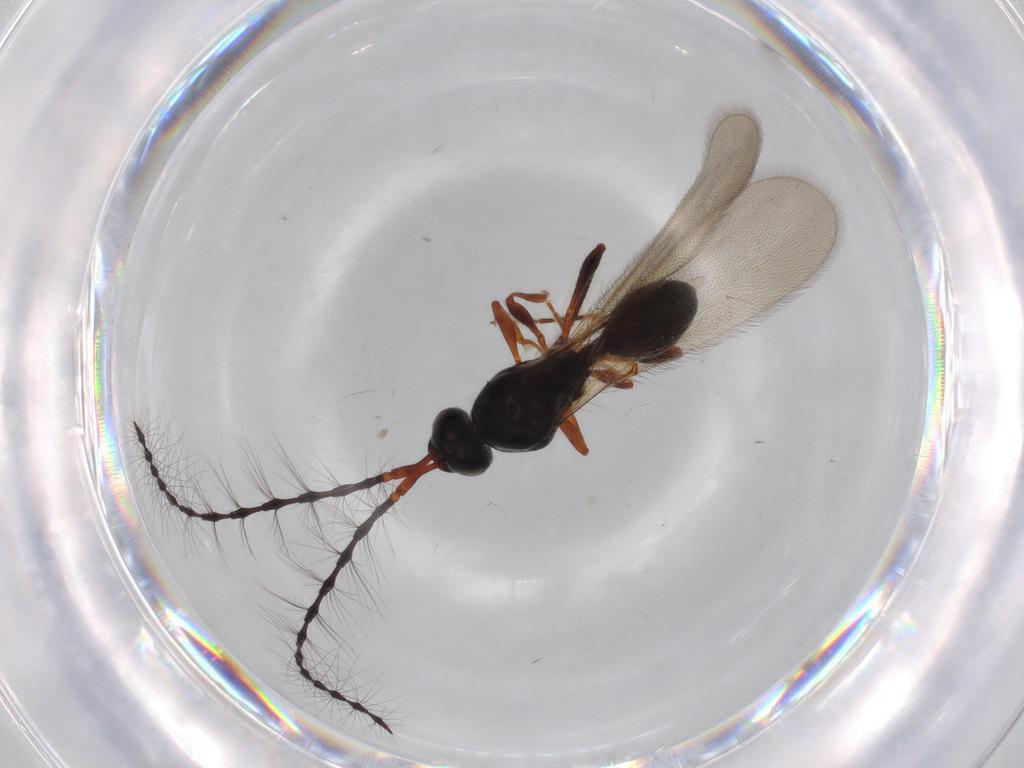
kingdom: Animalia
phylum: Arthropoda
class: Insecta
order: Hymenoptera
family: Diapriidae
